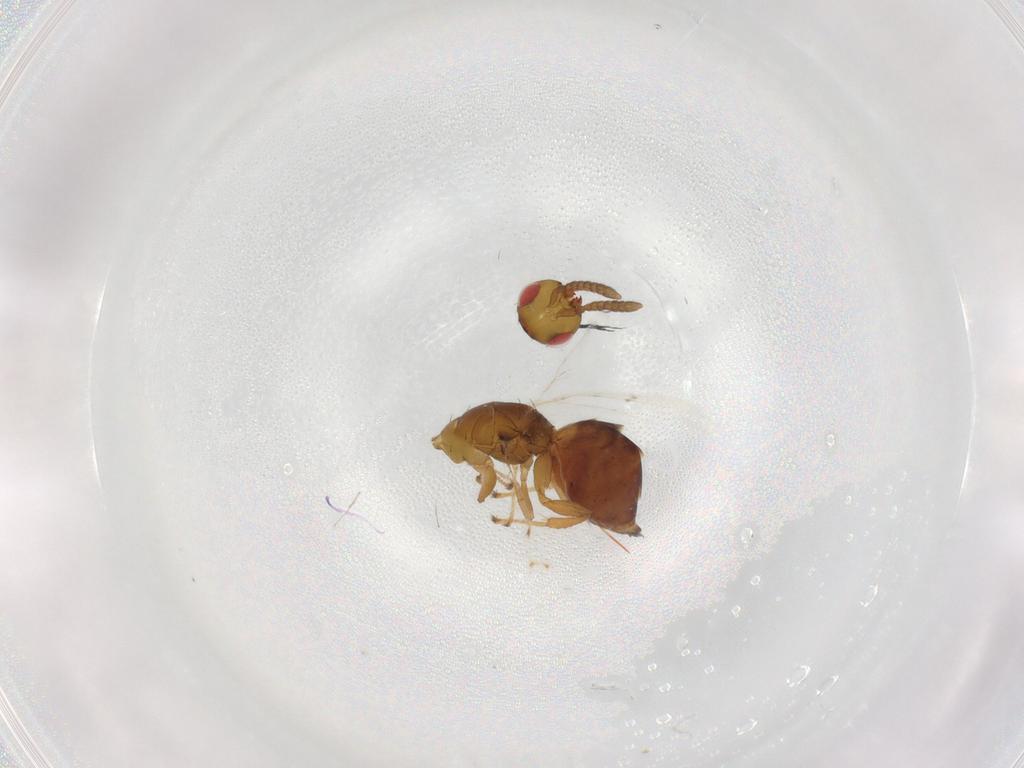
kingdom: Animalia
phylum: Arthropoda
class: Insecta
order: Hymenoptera
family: Epichrysomallidae
